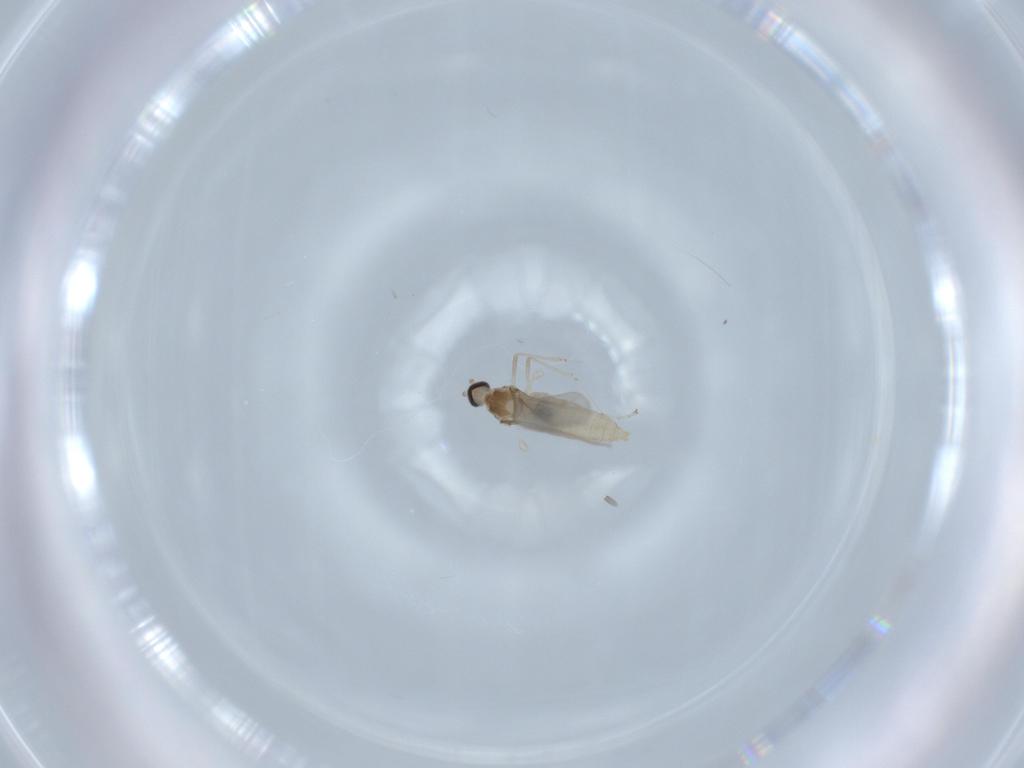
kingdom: Animalia
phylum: Arthropoda
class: Insecta
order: Diptera
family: Cecidomyiidae
